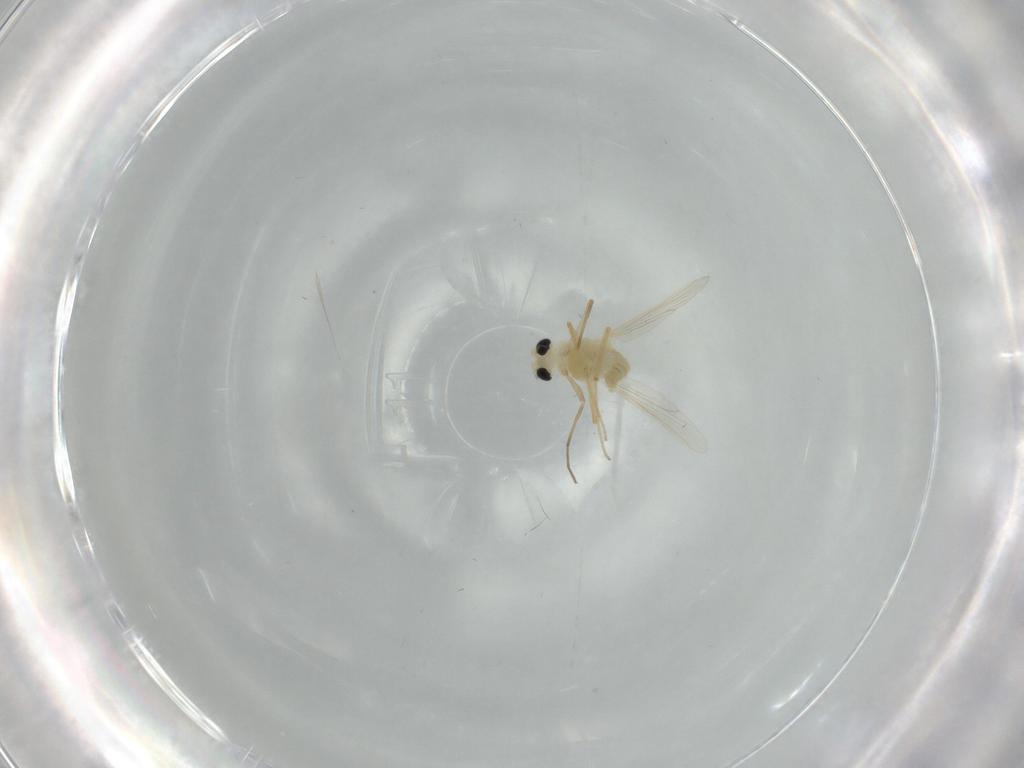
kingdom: Animalia
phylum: Arthropoda
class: Insecta
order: Diptera
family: Chironomidae
